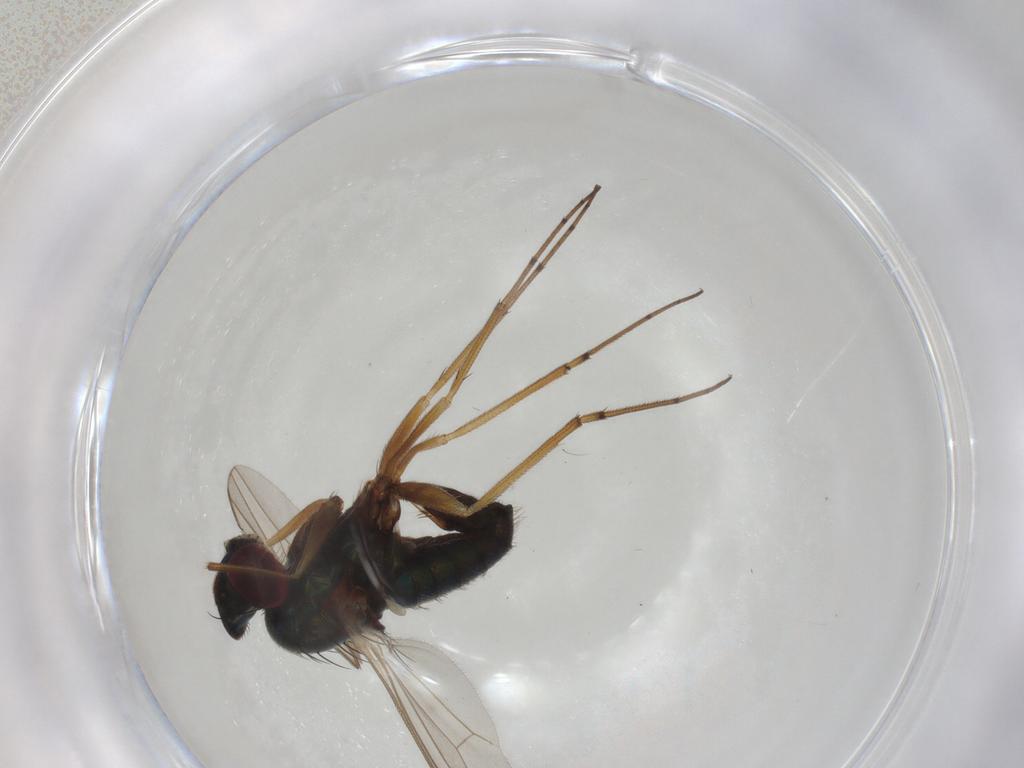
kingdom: Animalia
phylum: Arthropoda
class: Insecta
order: Diptera
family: Dolichopodidae
